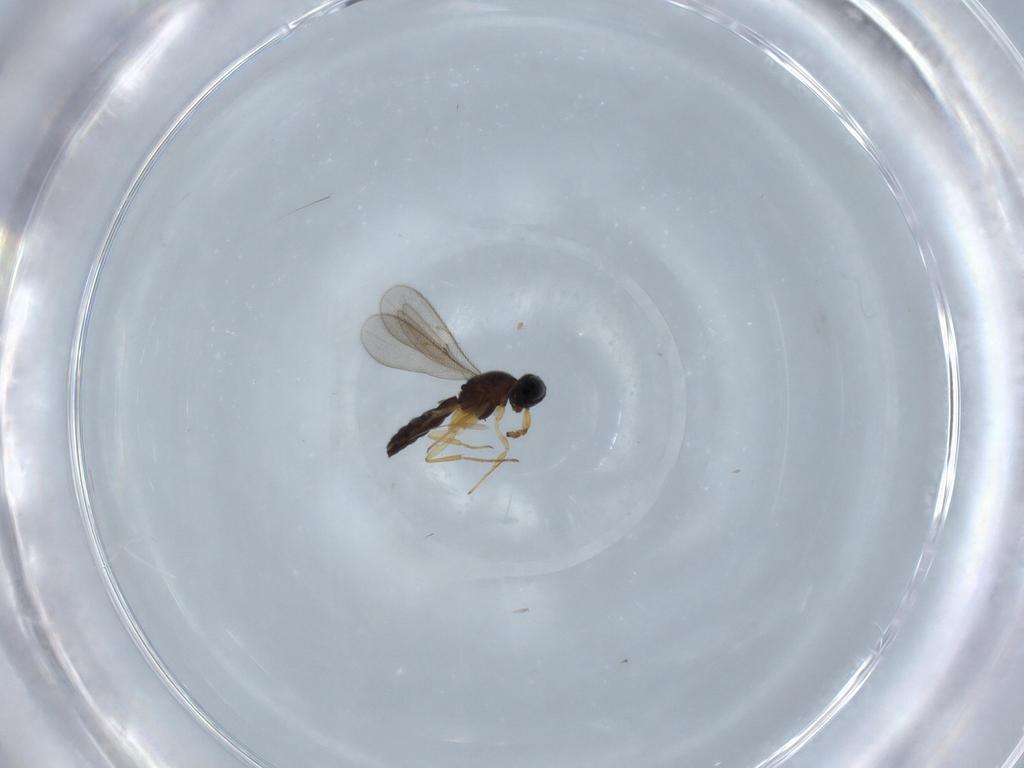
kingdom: Animalia
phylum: Arthropoda
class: Insecta
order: Hymenoptera
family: Scelionidae
